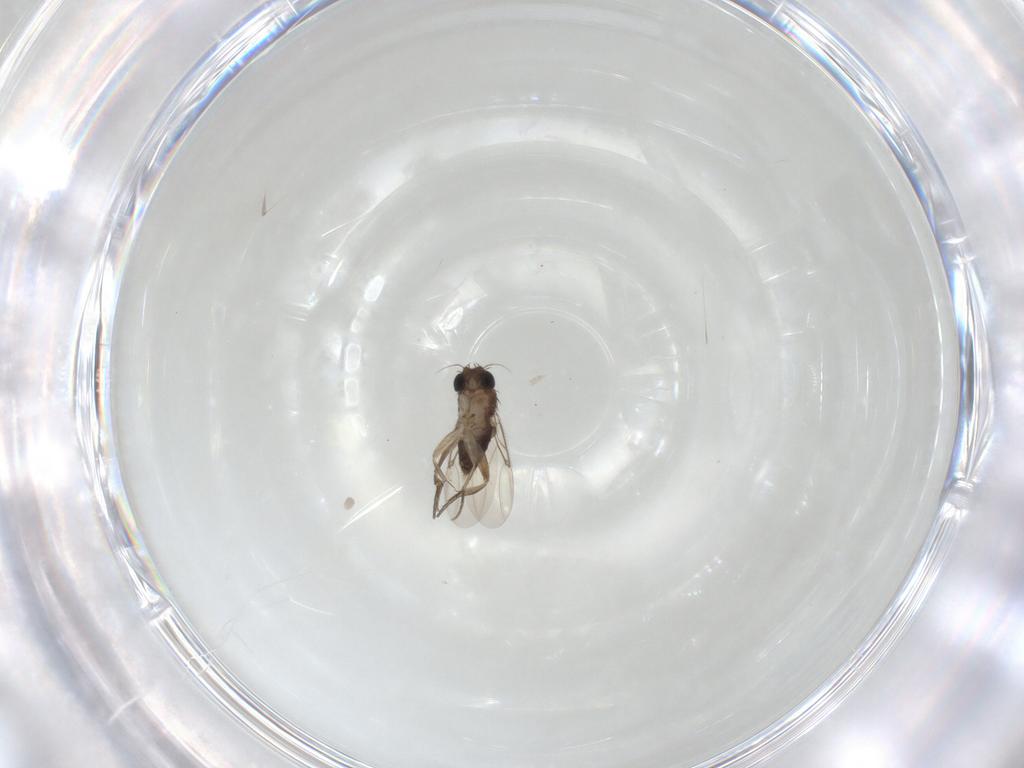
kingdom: Animalia
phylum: Arthropoda
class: Insecta
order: Diptera
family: Phoridae
